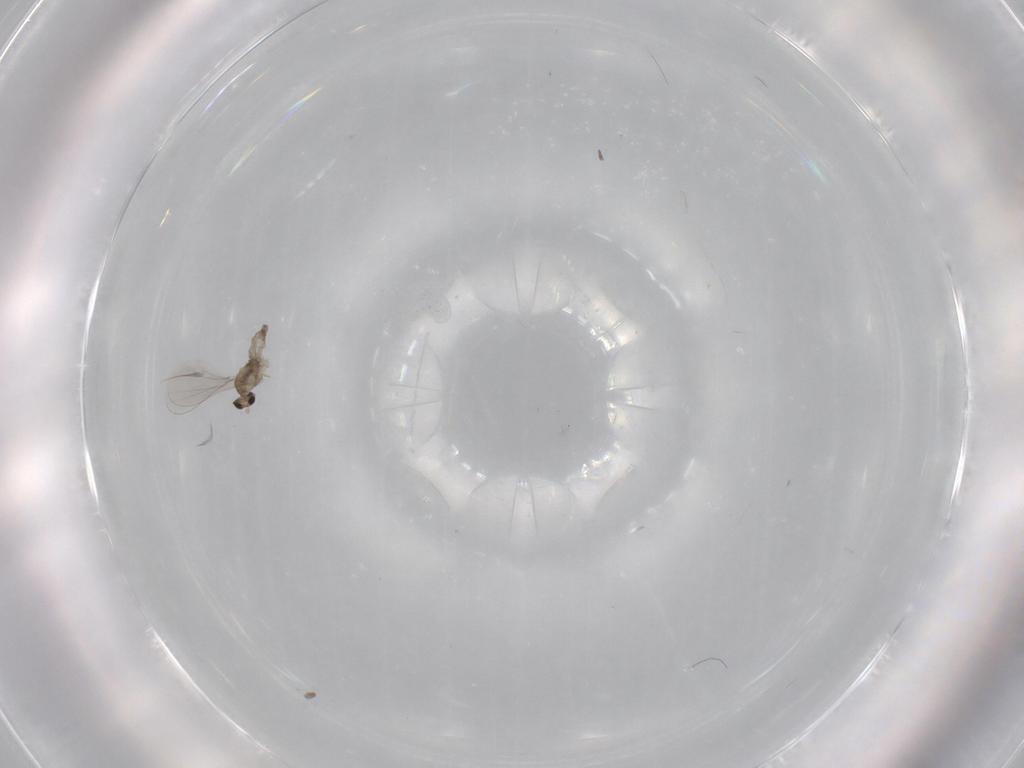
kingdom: Animalia
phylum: Arthropoda
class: Insecta
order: Diptera
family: Cecidomyiidae
